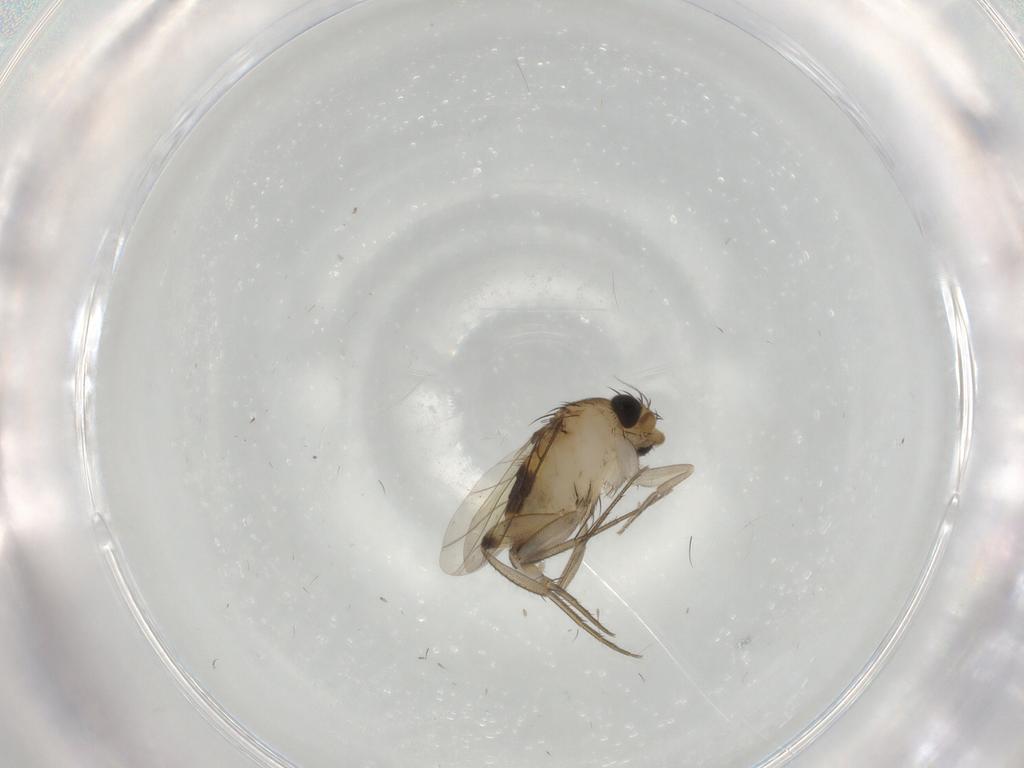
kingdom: Animalia
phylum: Arthropoda
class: Insecta
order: Diptera
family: Phoridae
